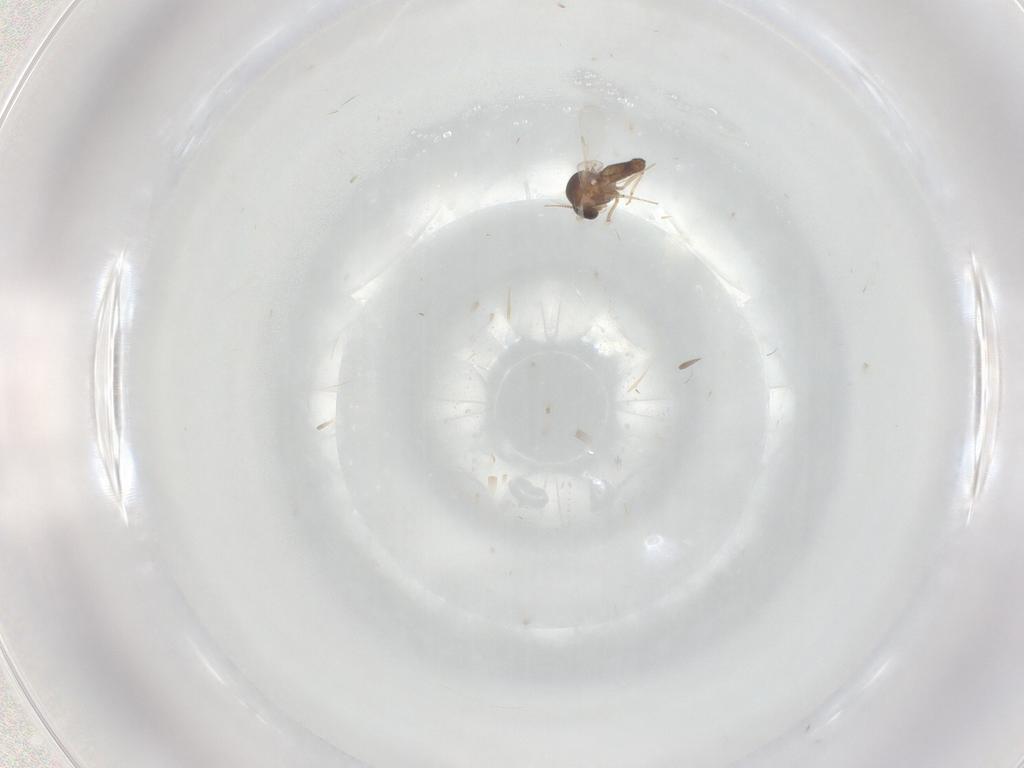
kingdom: Animalia
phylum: Arthropoda
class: Insecta
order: Diptera
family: Ceratopogonidae
